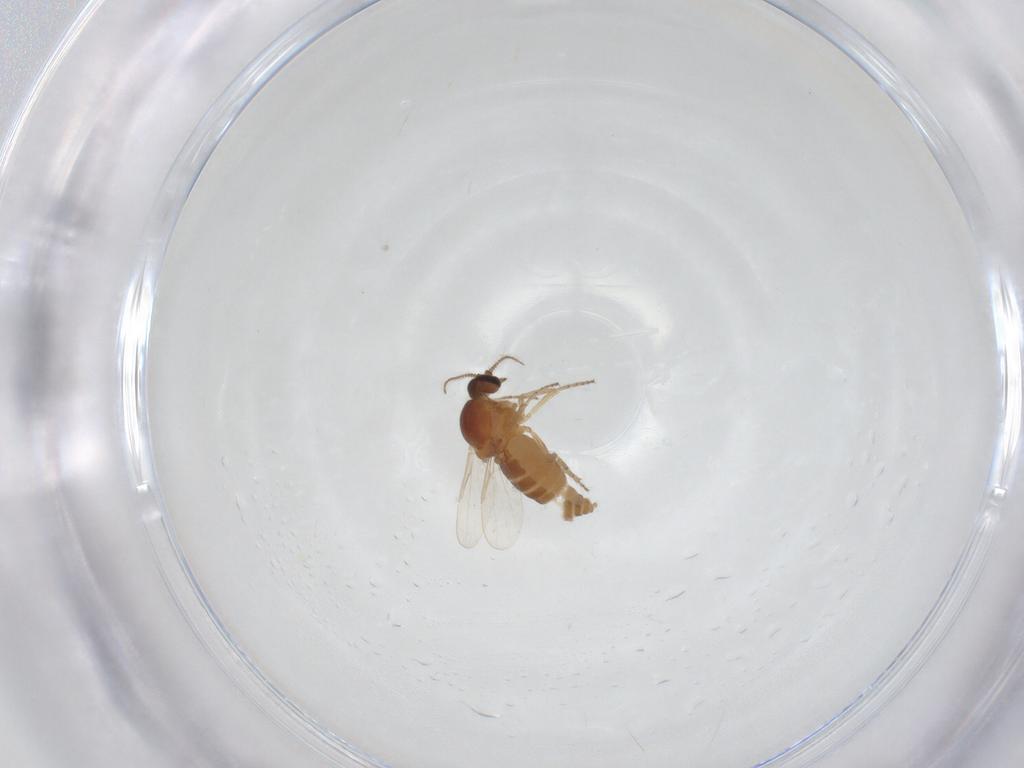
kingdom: Animalia
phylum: Arthropoda
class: Insecta
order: Diptera
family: Ceratopogonidae
